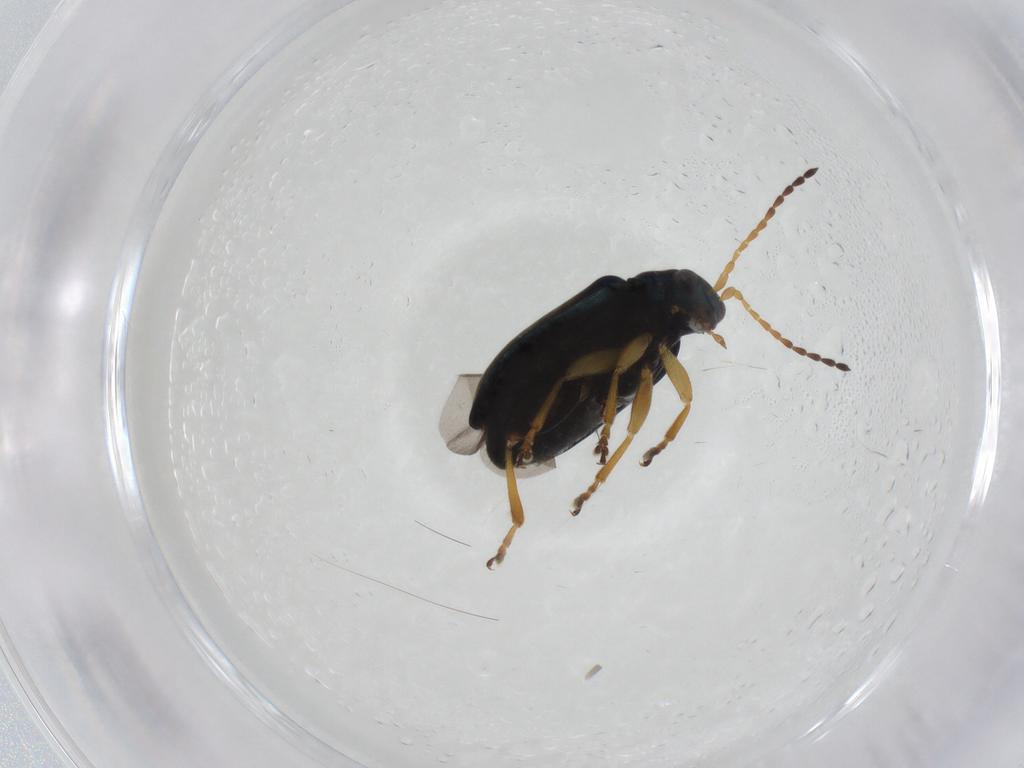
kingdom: Animalia
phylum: Arthropoda
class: Insecta
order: Coleoptera
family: Chrysomelidae
